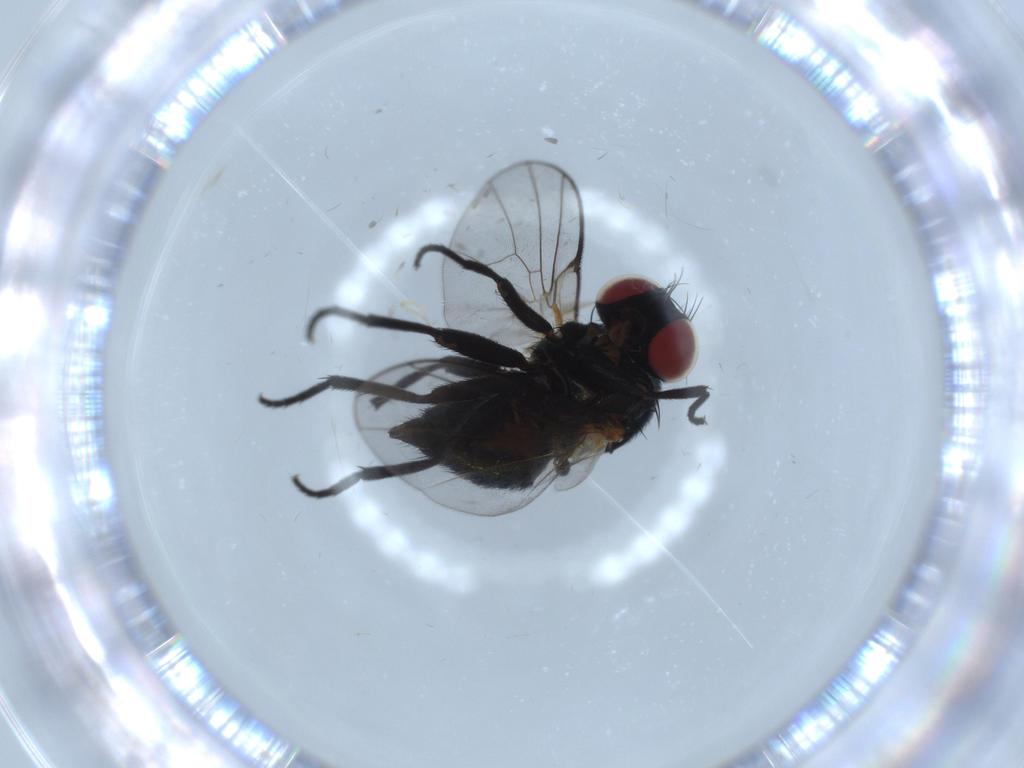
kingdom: Animalia
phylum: Arthropoda
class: Insecta
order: Diptera
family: Agromyzidae
